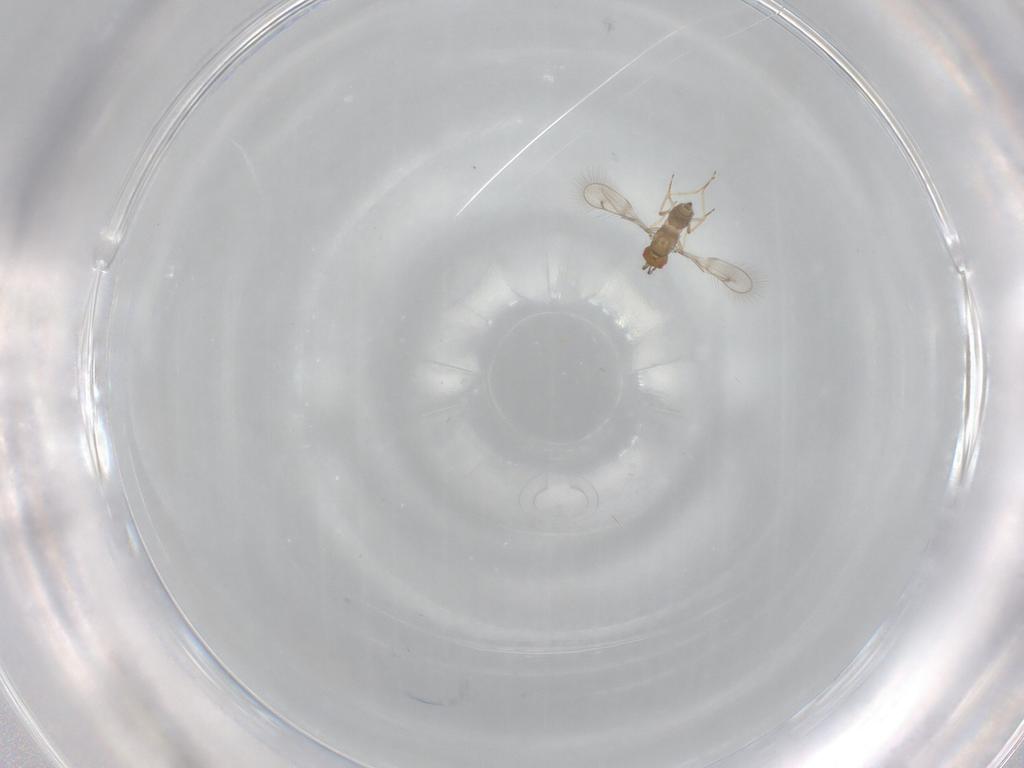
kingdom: Animalia
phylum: Arthropoda
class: Insecta
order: Hymenoptera
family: Eulophidae
